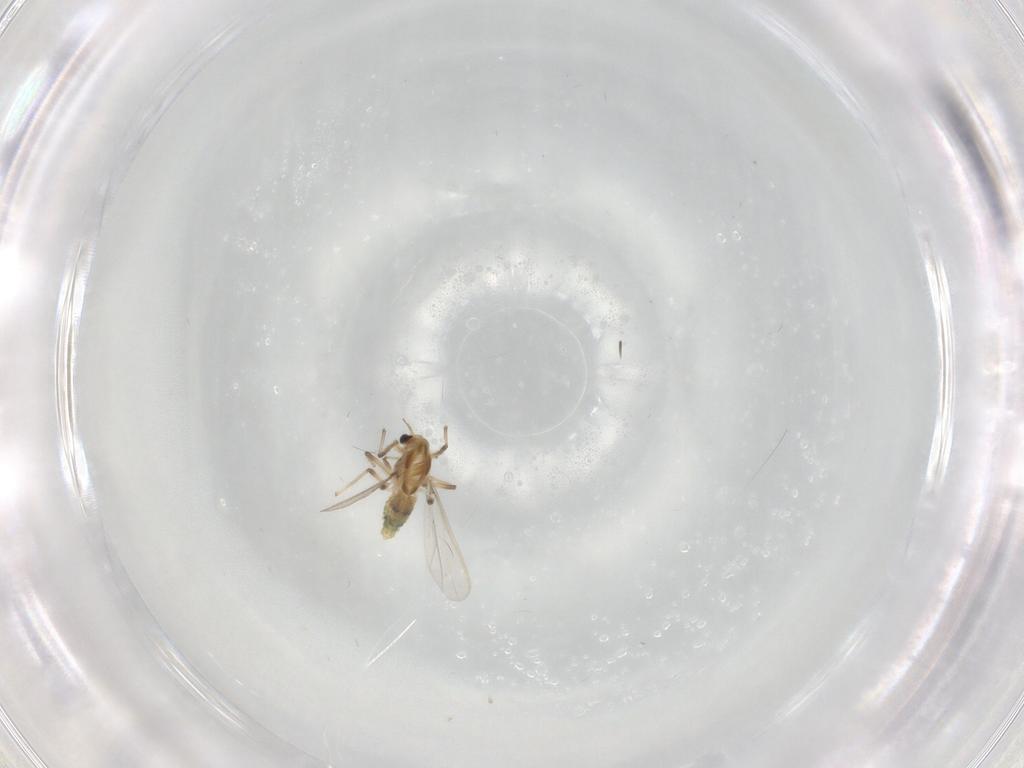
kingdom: Animalia
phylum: Arthropoda
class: Insecta
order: Diptera
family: Chironomidae
